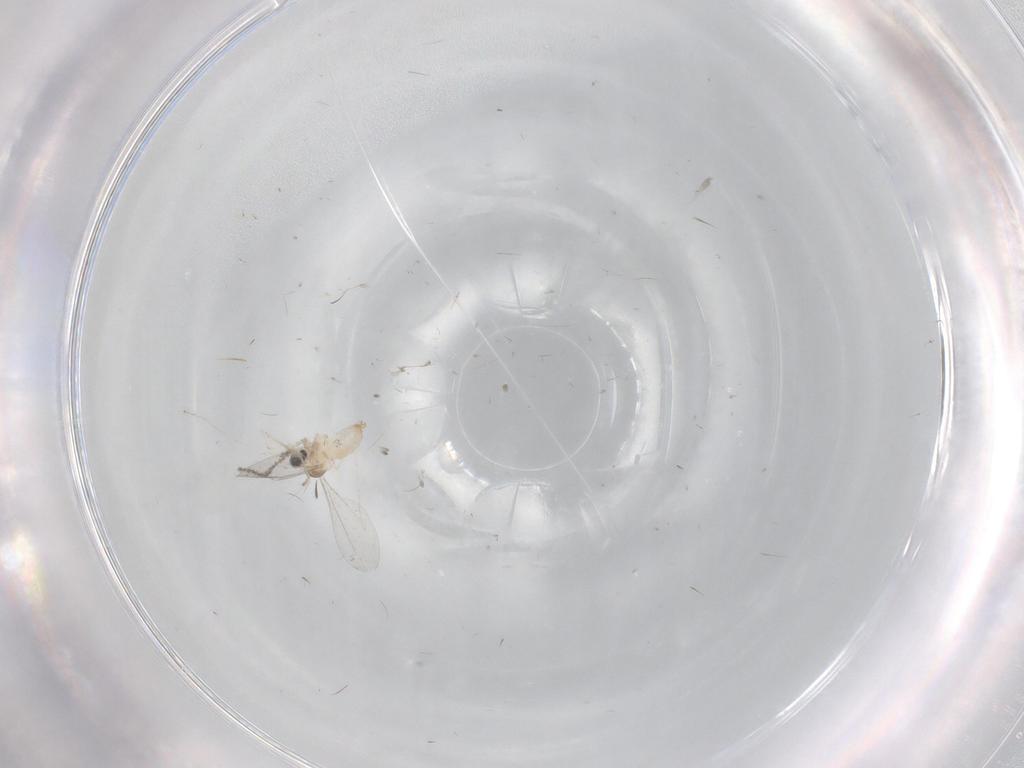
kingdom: Animalia
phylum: Arthropoda
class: Insecta
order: Diptera
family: Cecidomyiidae
